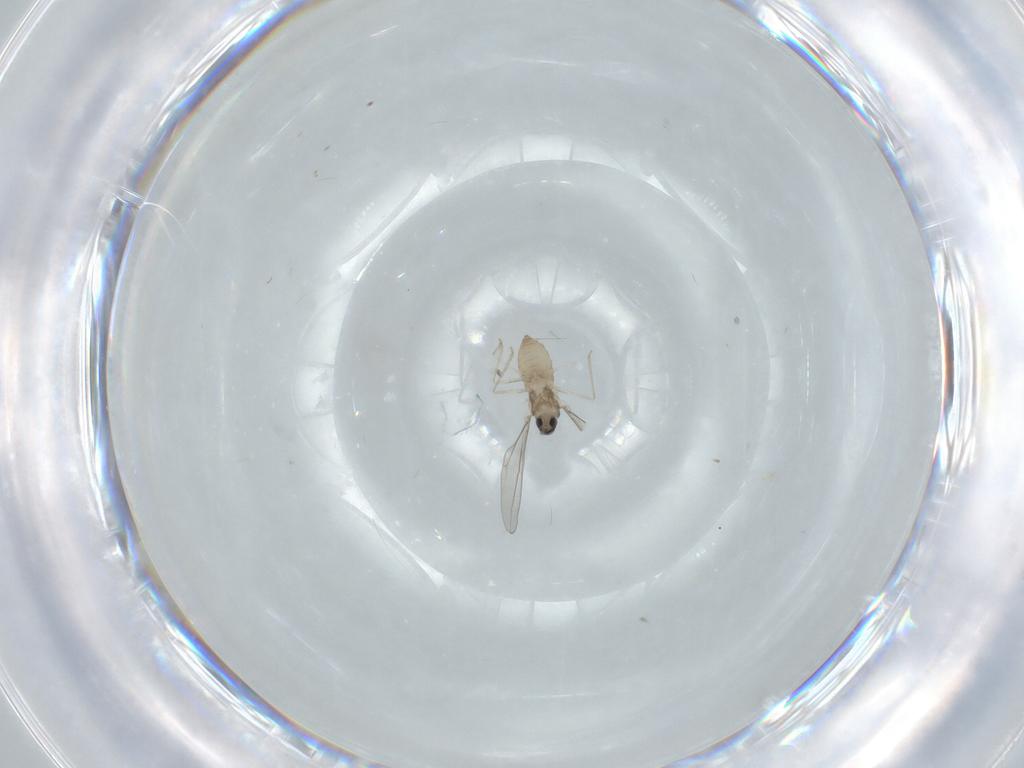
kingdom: Animalia
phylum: Arthropoda
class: Insecta
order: Diptera
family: Cecidomyiidae
